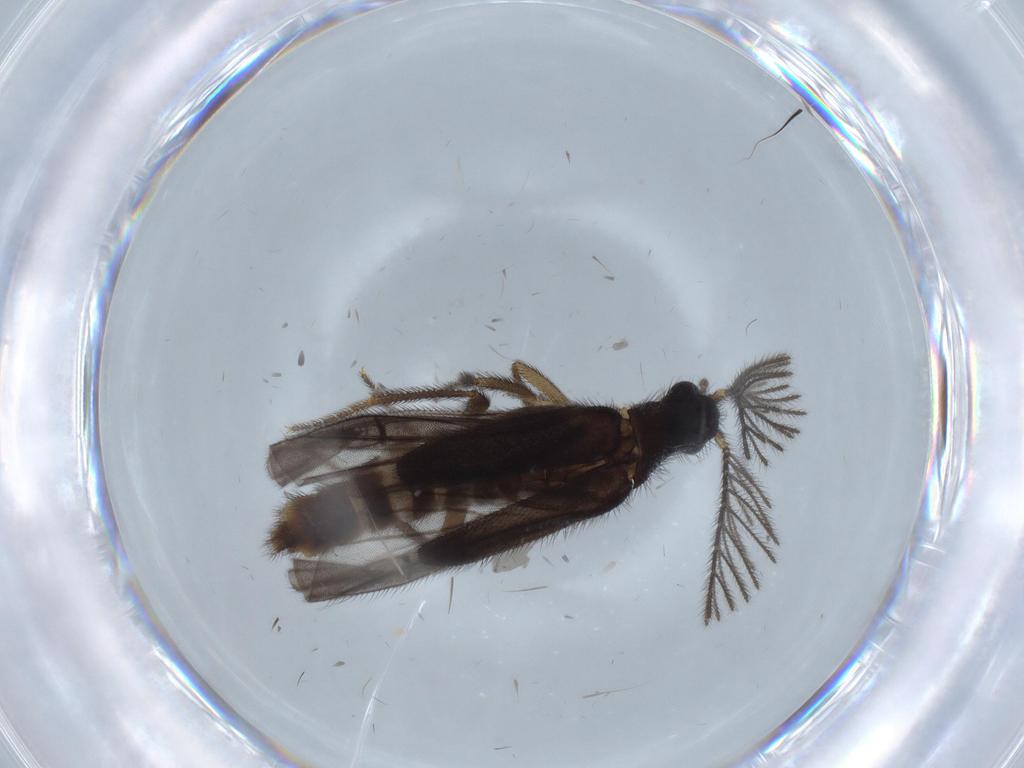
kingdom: Animalia
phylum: Arthropoda
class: Insecta
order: Coleoptera
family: Phengodidae
